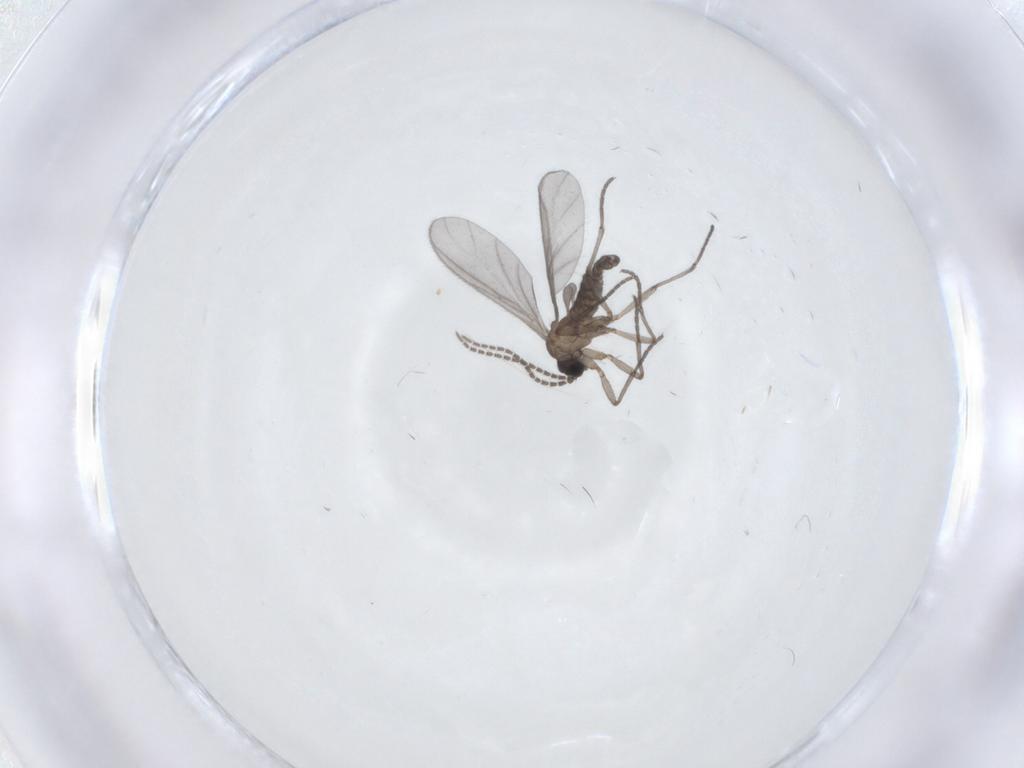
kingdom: Animalia
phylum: Arthropoda
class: Insecta
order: Diptera
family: Sciaridae
